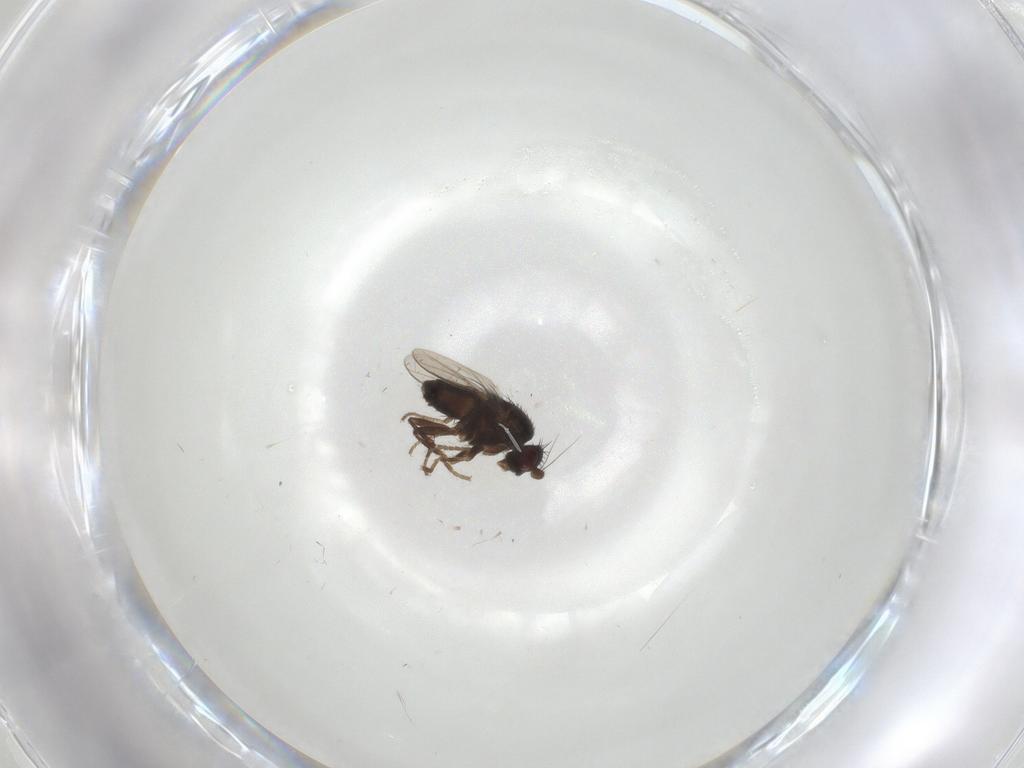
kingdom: Animalia
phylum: Arthropoda
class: Insecta
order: Diptera
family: Sphaeroceridae
